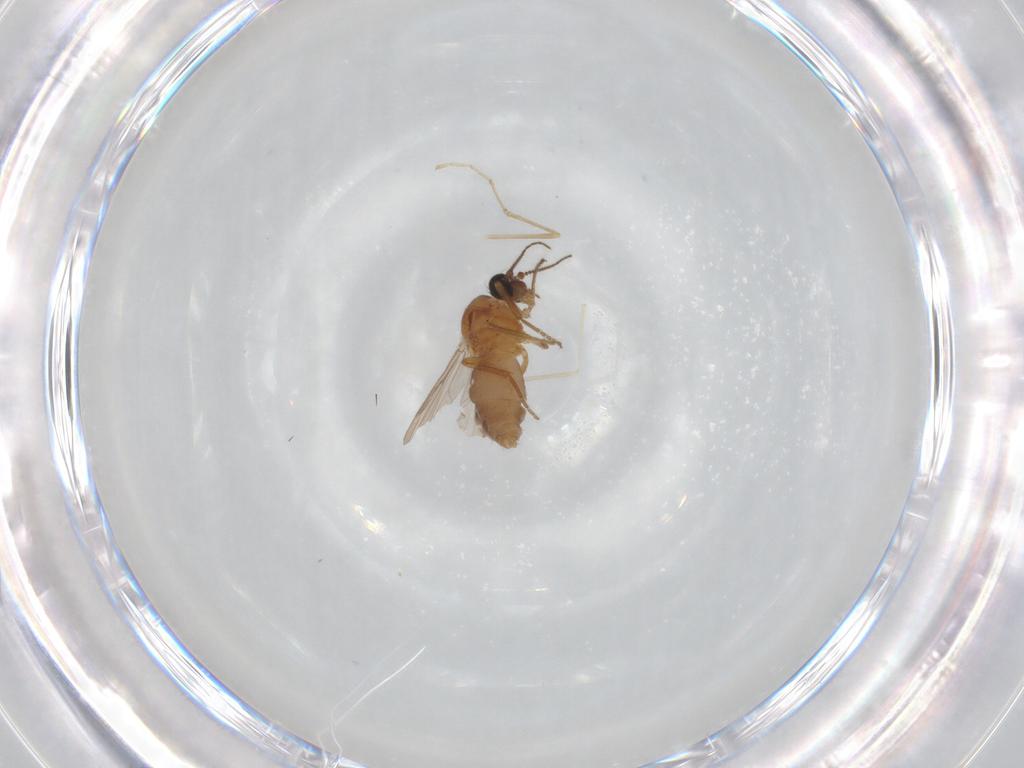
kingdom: Animalia
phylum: Arthropoda
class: Insecta
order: Diptera
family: Ceratopogonidae
